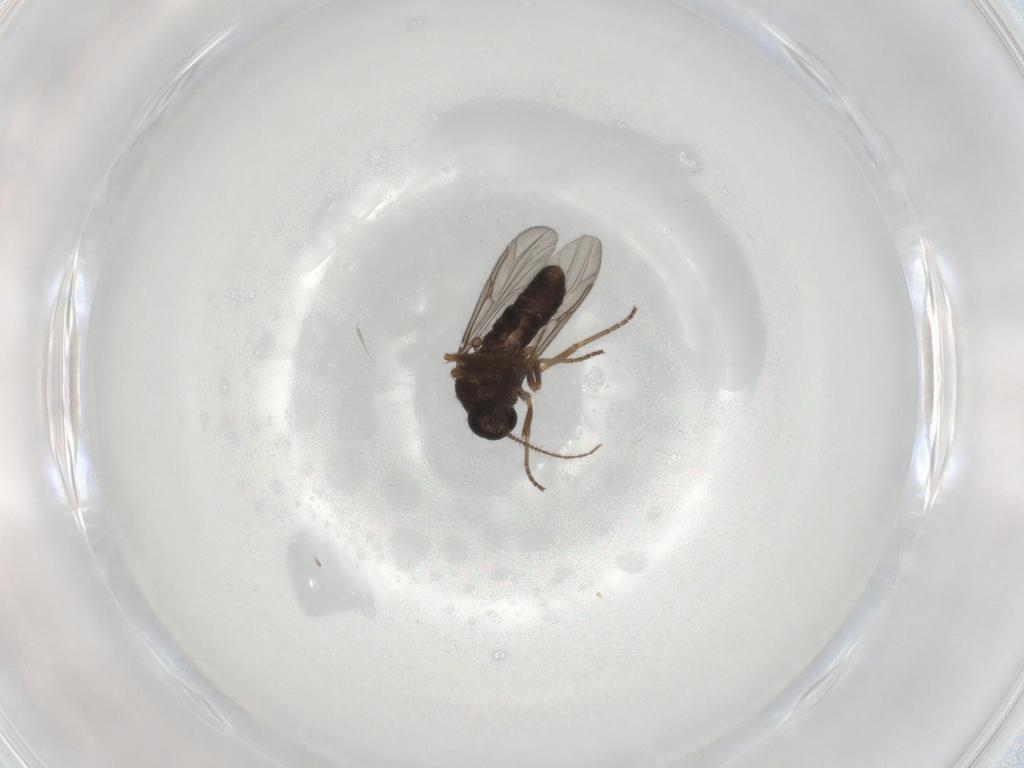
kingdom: Animalia
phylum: Arthropoda
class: Insecta
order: Diptera
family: Ceratopogonidae
